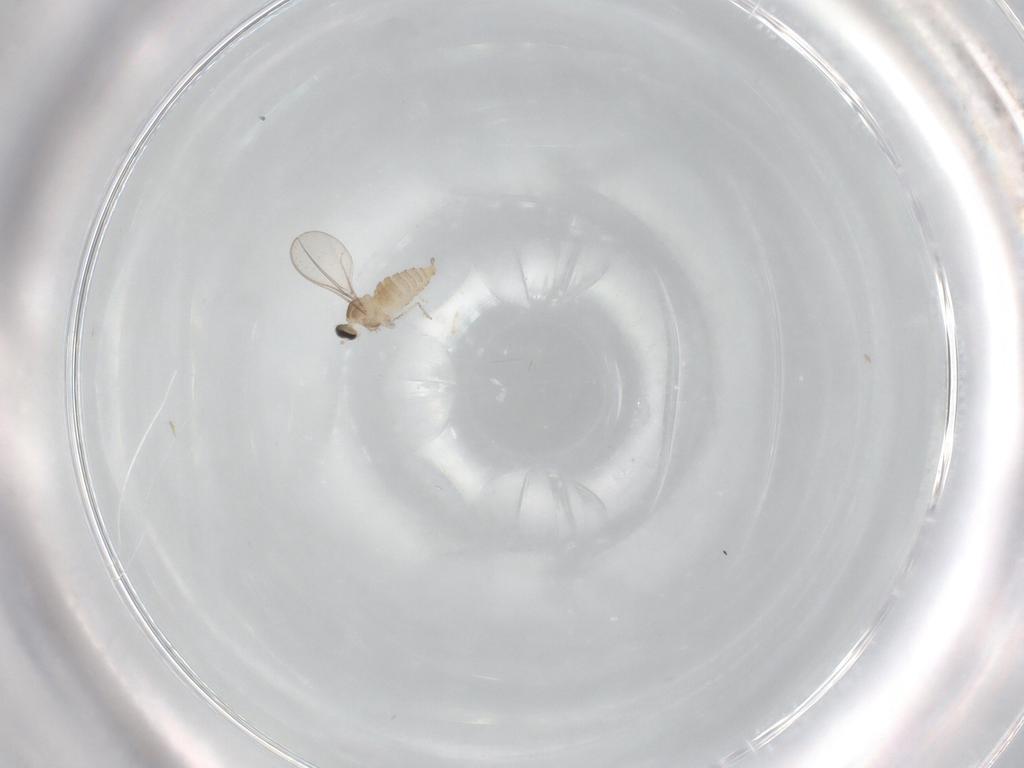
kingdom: Animalia
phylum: Arthropoda
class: Insecta
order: Diptera
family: Cecidomyiidae
